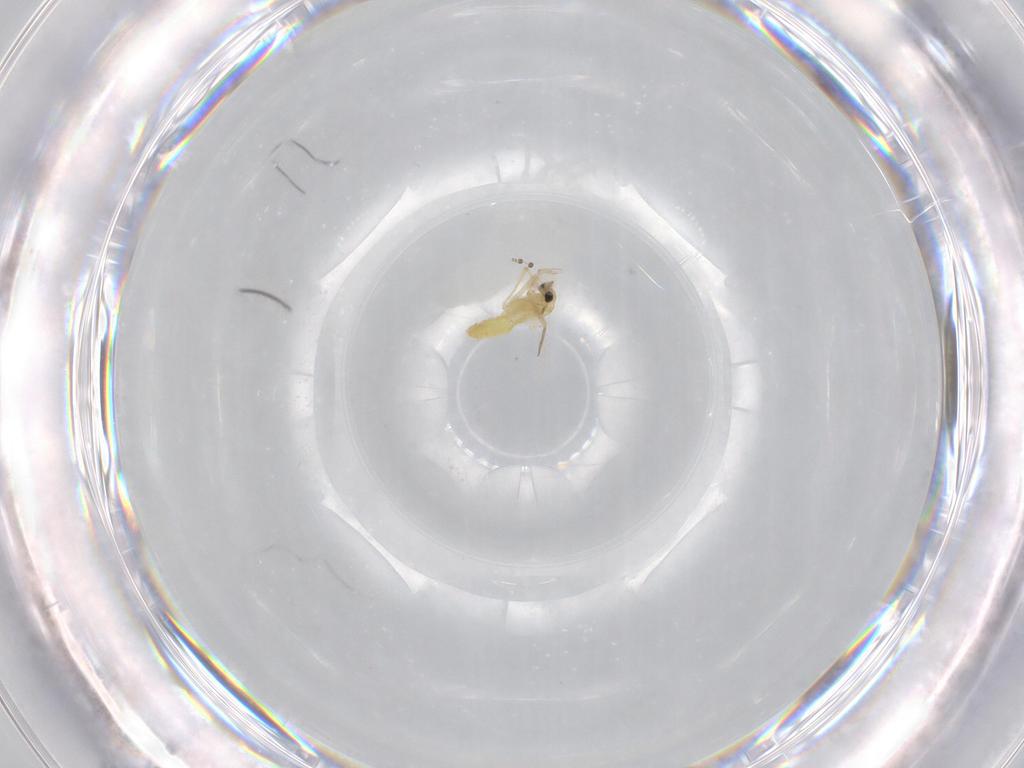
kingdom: Animalia
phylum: Arthropoda
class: Insecta
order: Diptera
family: Chironomidae
